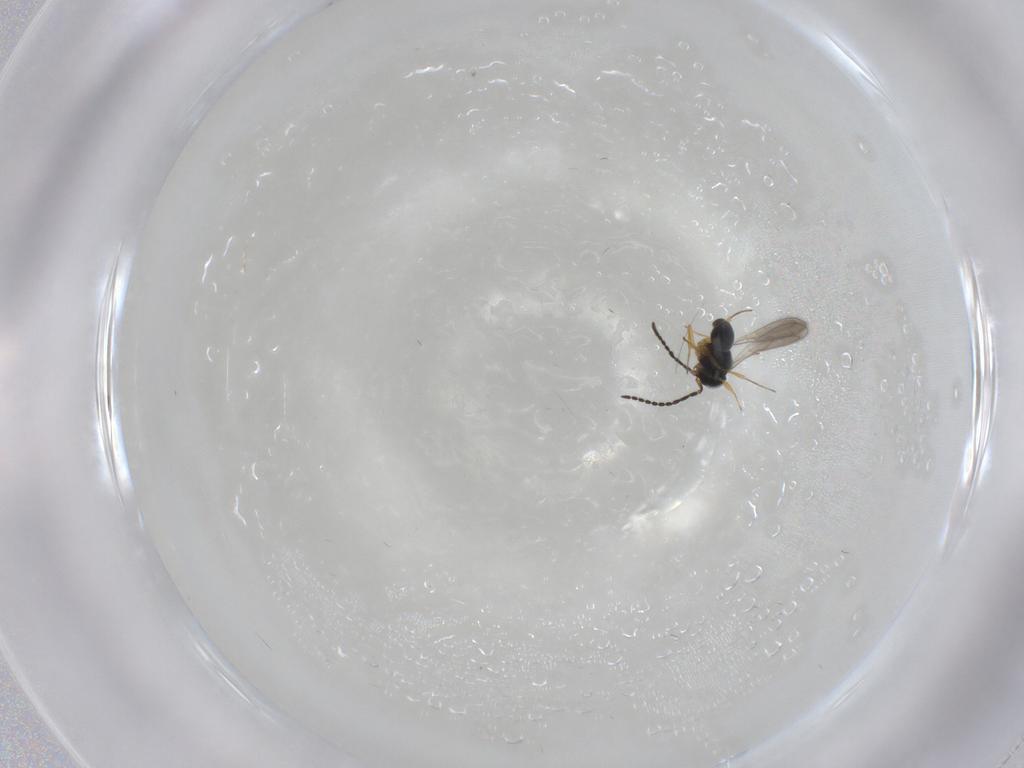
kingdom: Animalia
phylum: Arthropoda
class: Insecta
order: Hymenoptera
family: Scelionidae
